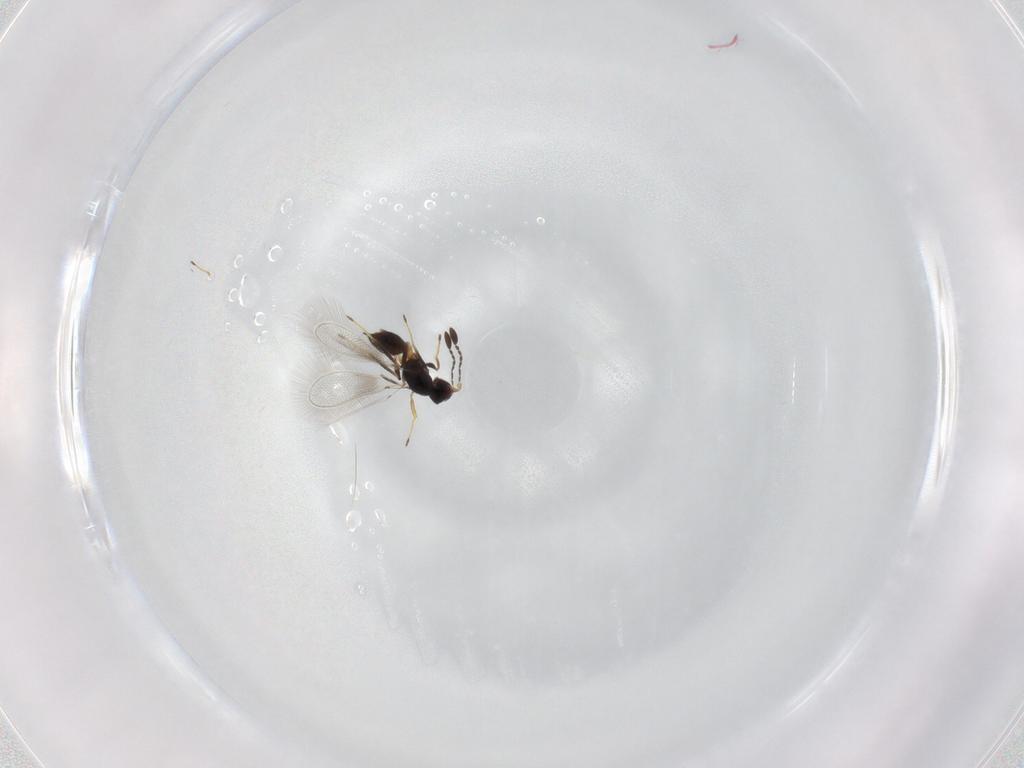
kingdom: Animalia
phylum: Arthropoda
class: Insecta
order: Hymenoptera
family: Mymaridae
